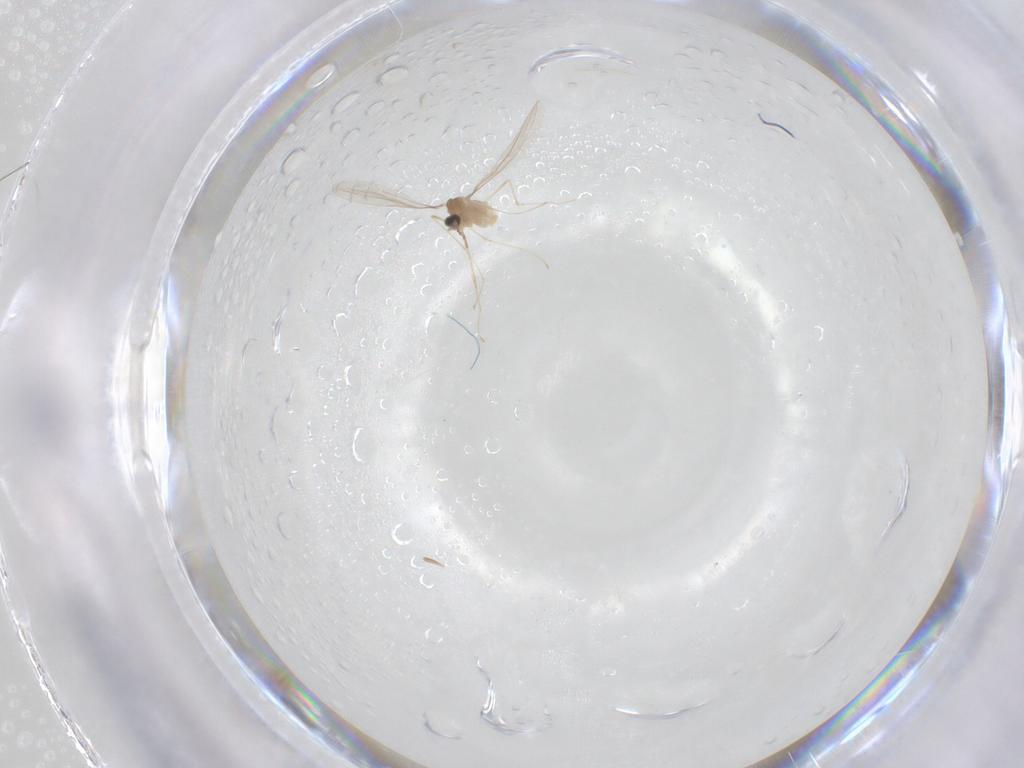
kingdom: Animalia
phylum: Arthropoda
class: Insecta
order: Diptera
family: Cecidomyiidae
